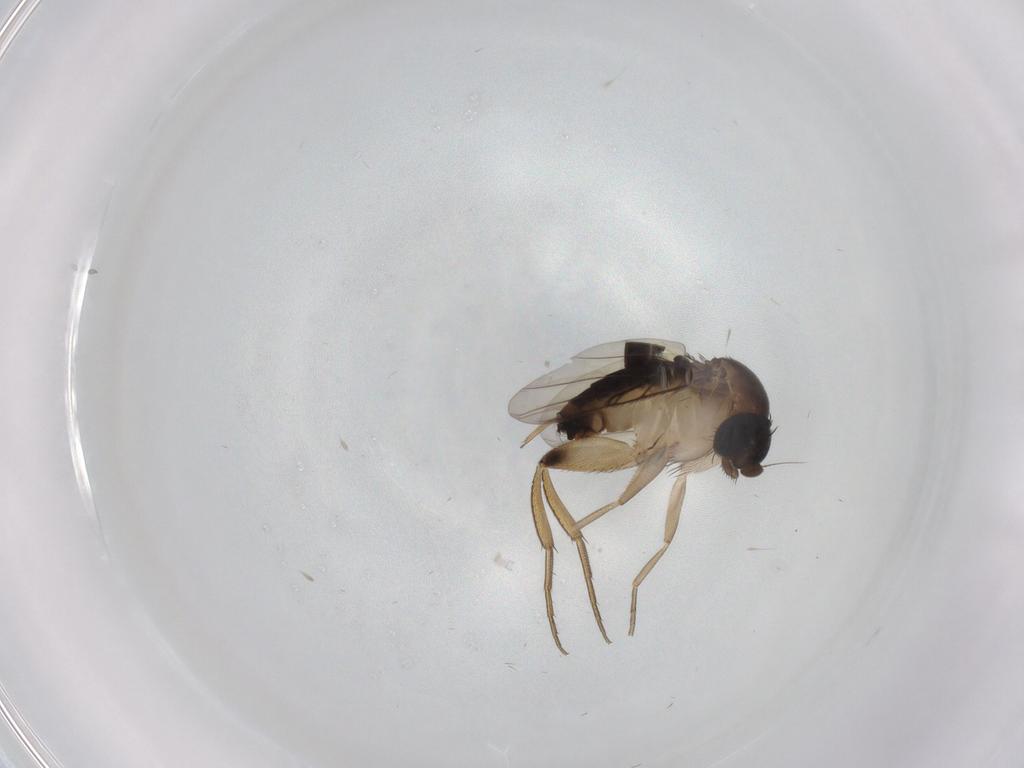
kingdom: Animalia
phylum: Arthropoda
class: Insecta
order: Diptera
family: Phoridae
